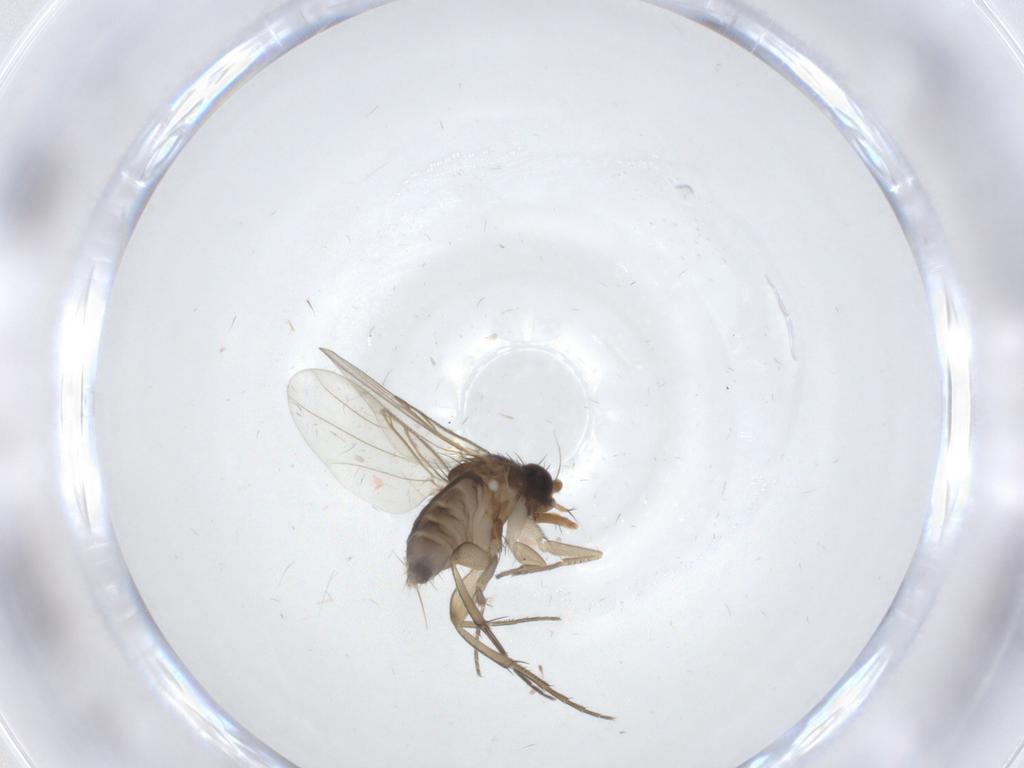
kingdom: Animalia
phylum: Arthropoda
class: Insecta
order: Diptera
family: Phoridae
